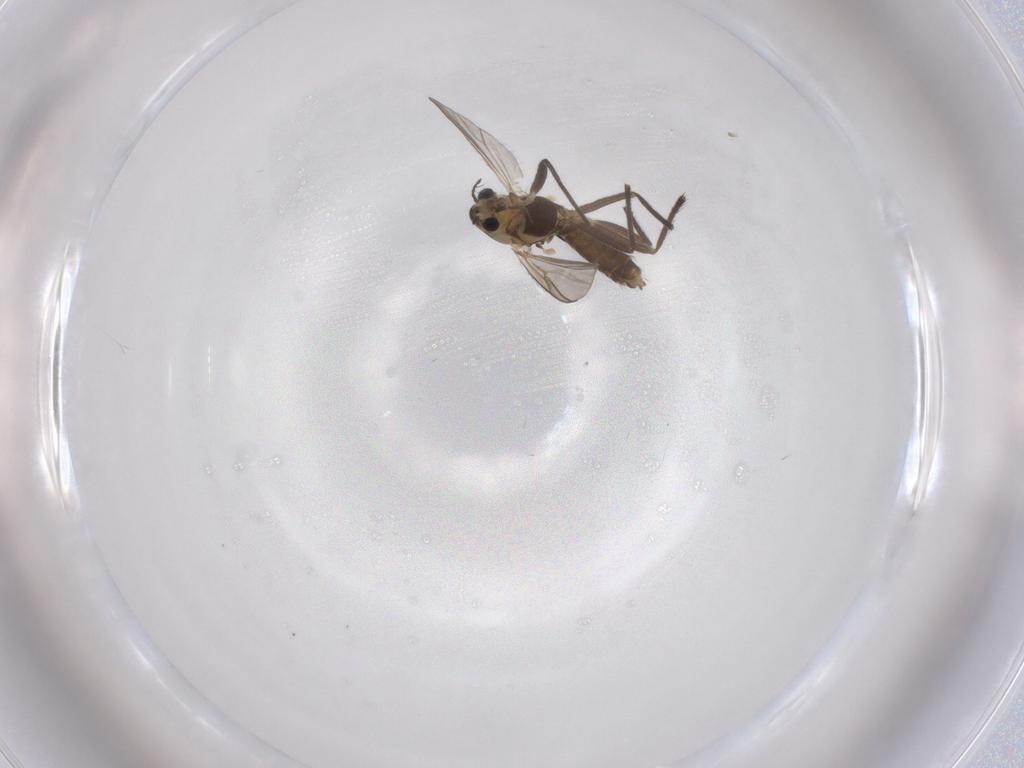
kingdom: Animalia
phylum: Arthropoda
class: Insecta
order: Diptera
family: Chironomidae
